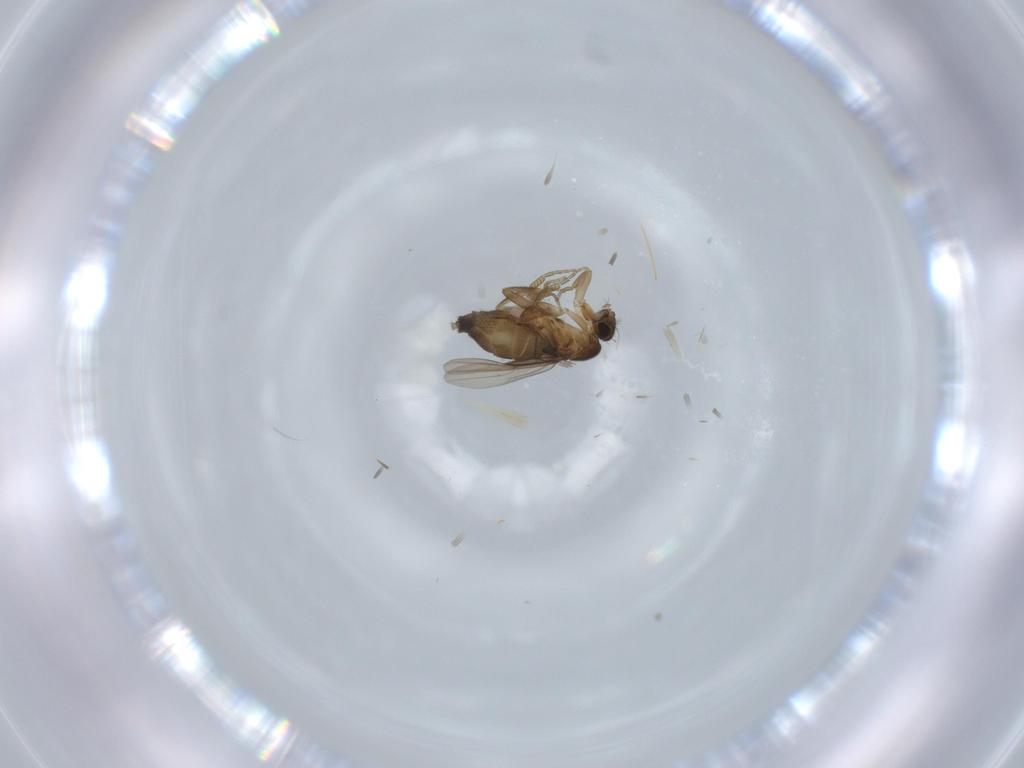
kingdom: Animalia
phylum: Arthropoda
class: Insecta
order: Diptera
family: Phoridae
